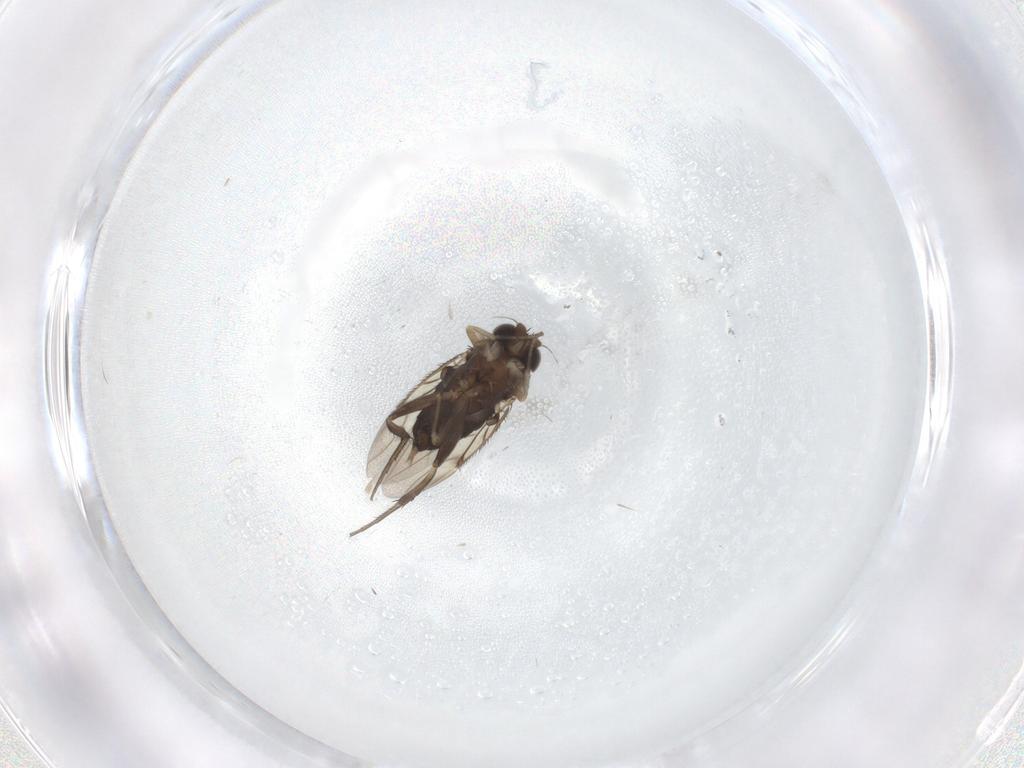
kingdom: Animalia
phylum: Arthropoda
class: Insecta
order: Diptera
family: Phoridae
